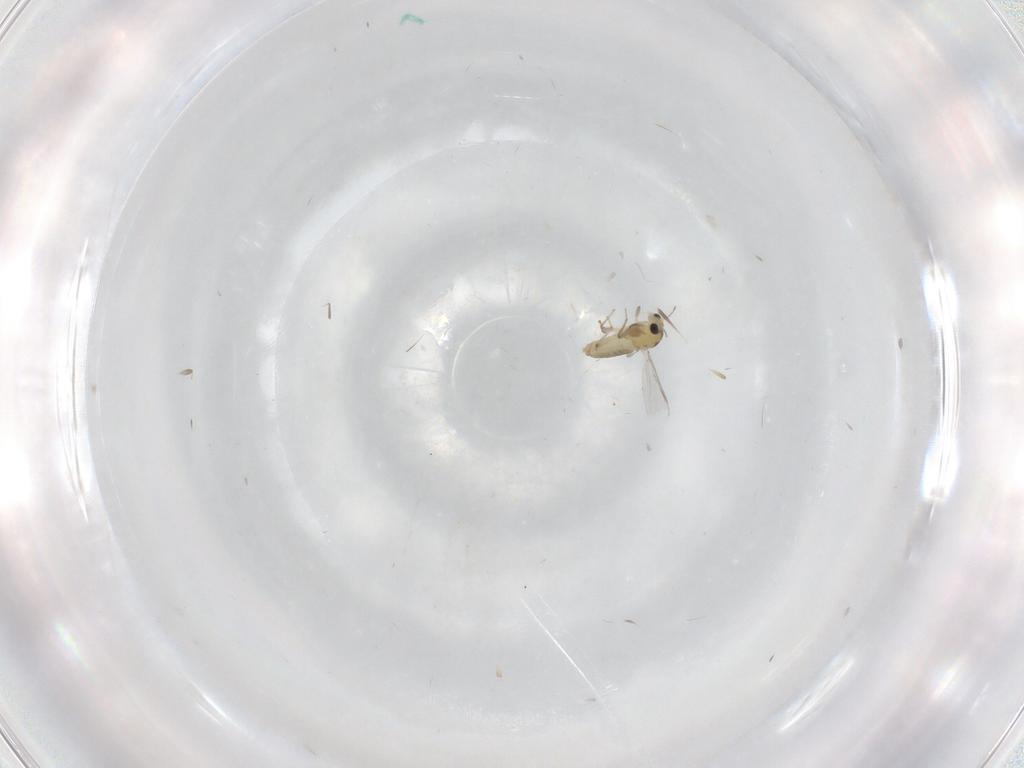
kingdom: Animalia
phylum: Arthropoda
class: Insecta
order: Diptera
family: Chironomidae
